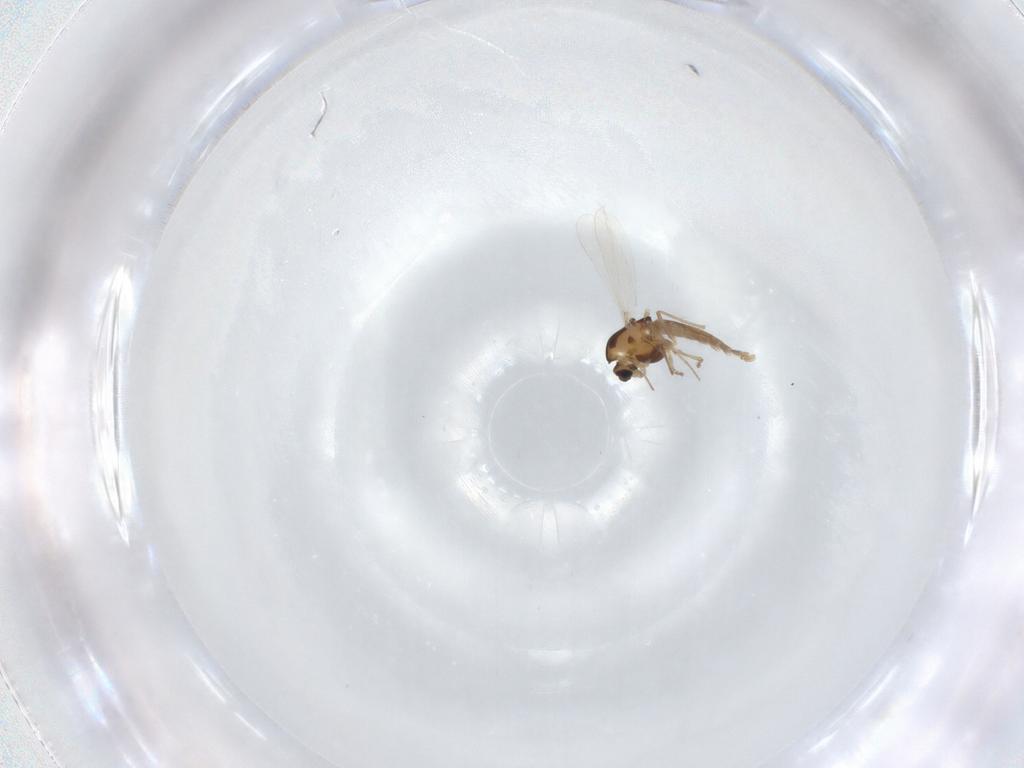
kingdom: Animalia
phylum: Arthropoda
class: Insecta
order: Diptera
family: Chironomidae
